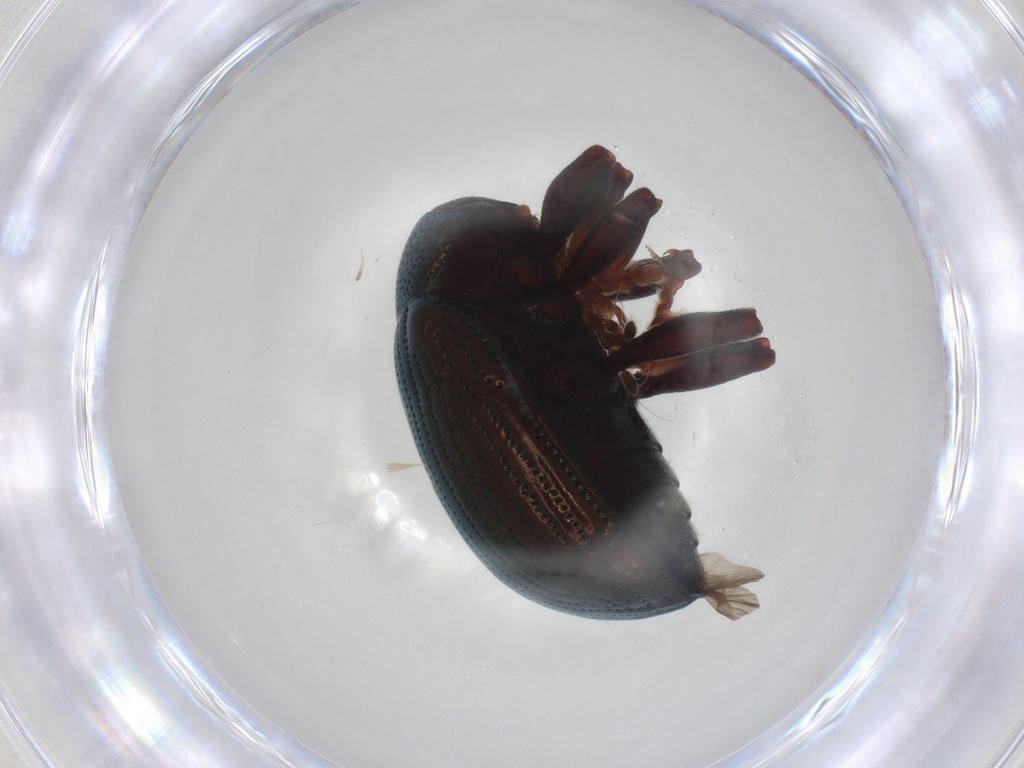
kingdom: Animalia
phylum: Arthropoda
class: Insecta
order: Coleoptera
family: Chrysomelidae
